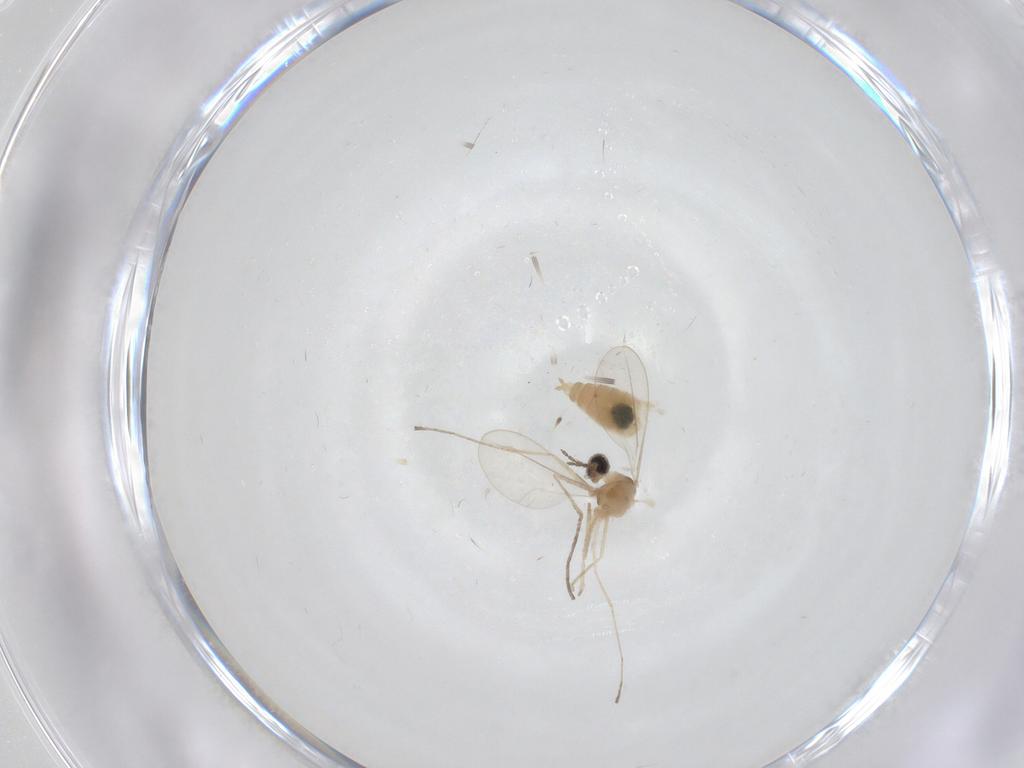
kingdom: Animalia
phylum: Arthropoda
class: Insecta
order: Diptera
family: Cecidomyiidae
